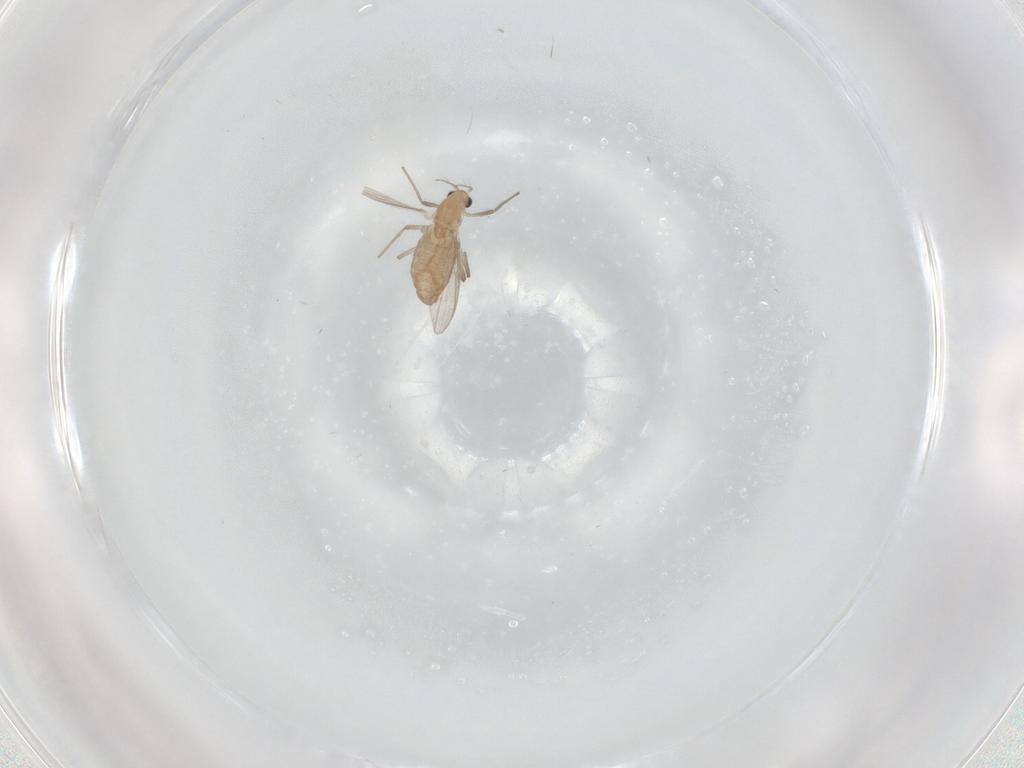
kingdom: Animalia
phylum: Arthropoda
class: Insecta
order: Diptera
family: Dolichopodidae
